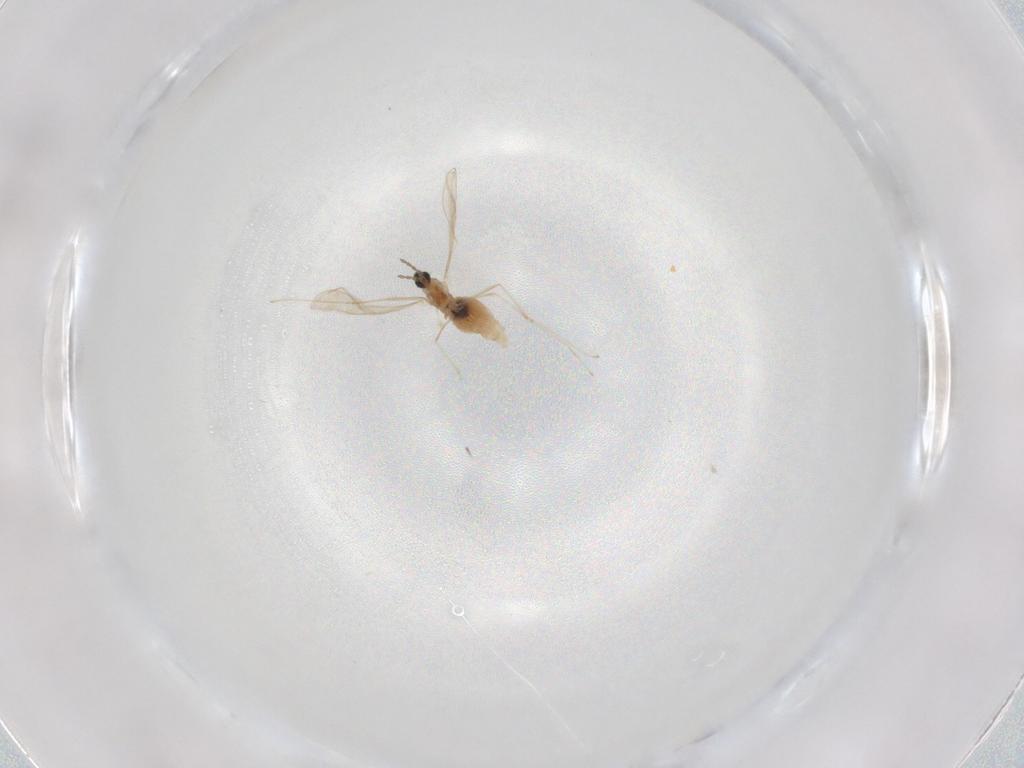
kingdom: Animalia
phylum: Arthropoda
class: Insecta
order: Diptera
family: Cecidomyiidae
